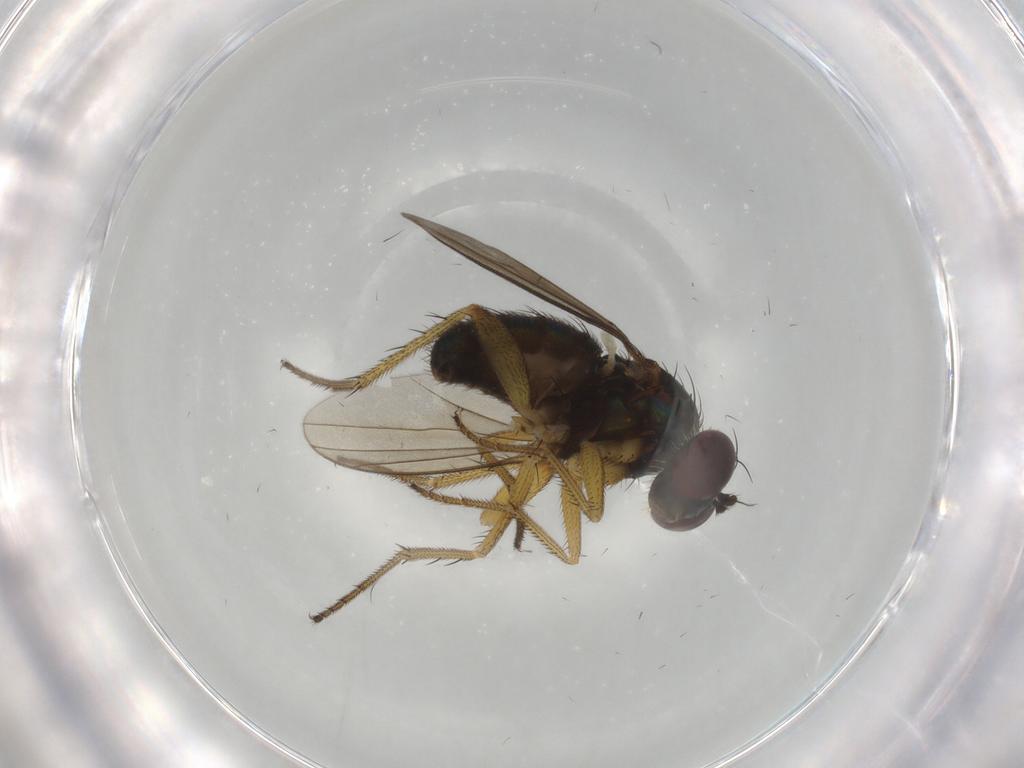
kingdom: Animalia
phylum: Arthropoda
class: Insecta
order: Diptera
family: Dolichopodidae
